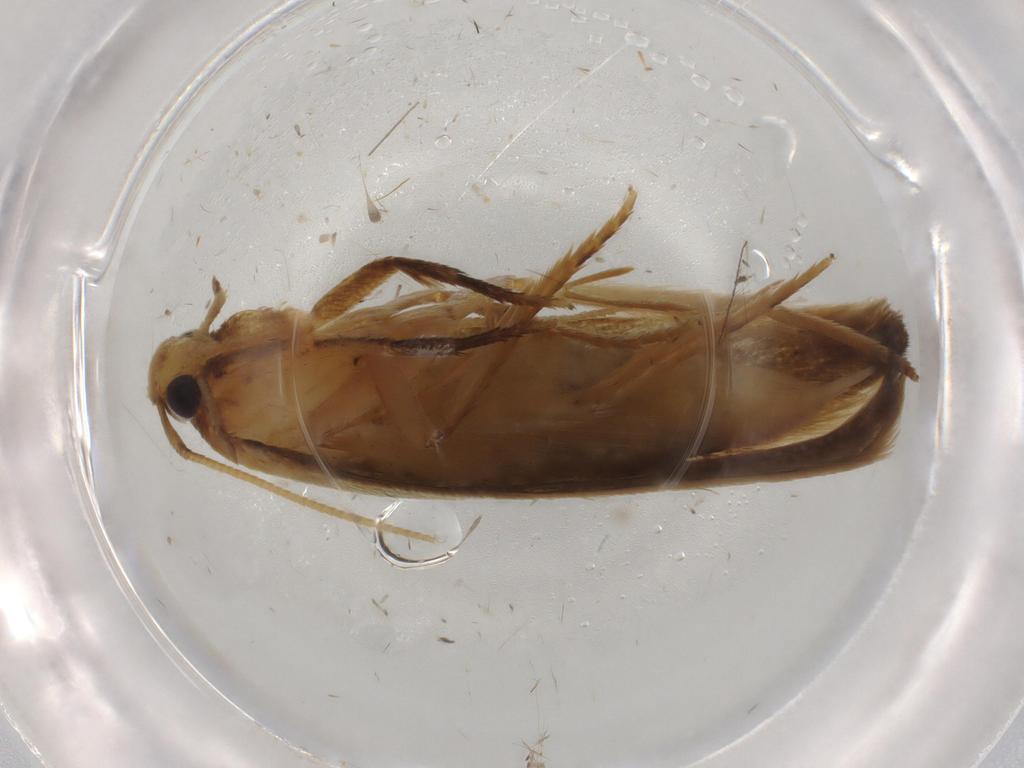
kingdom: Animalia
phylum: Arthropoda
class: Insecta
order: Lepidoptera
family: Tineidae
